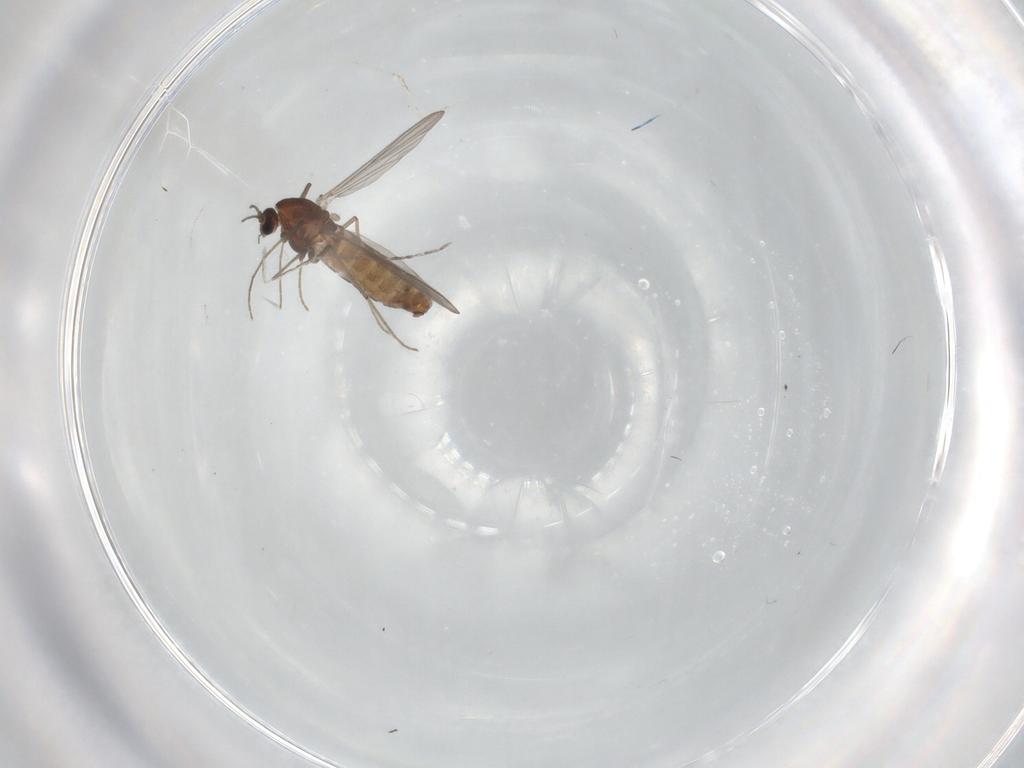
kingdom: Animalia
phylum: Arthropoda
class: Insecta
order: Diptera
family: Chironomidae
